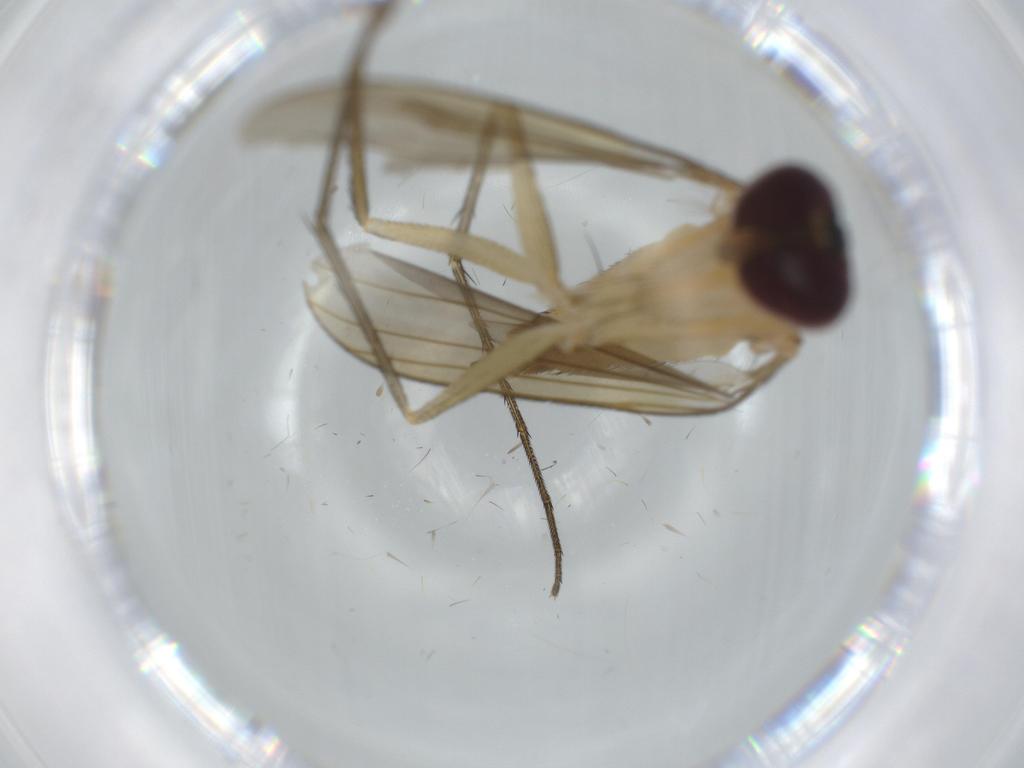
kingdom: Animalia
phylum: Arthropoda
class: Insecta
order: Diptera
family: Dolichopodidae
